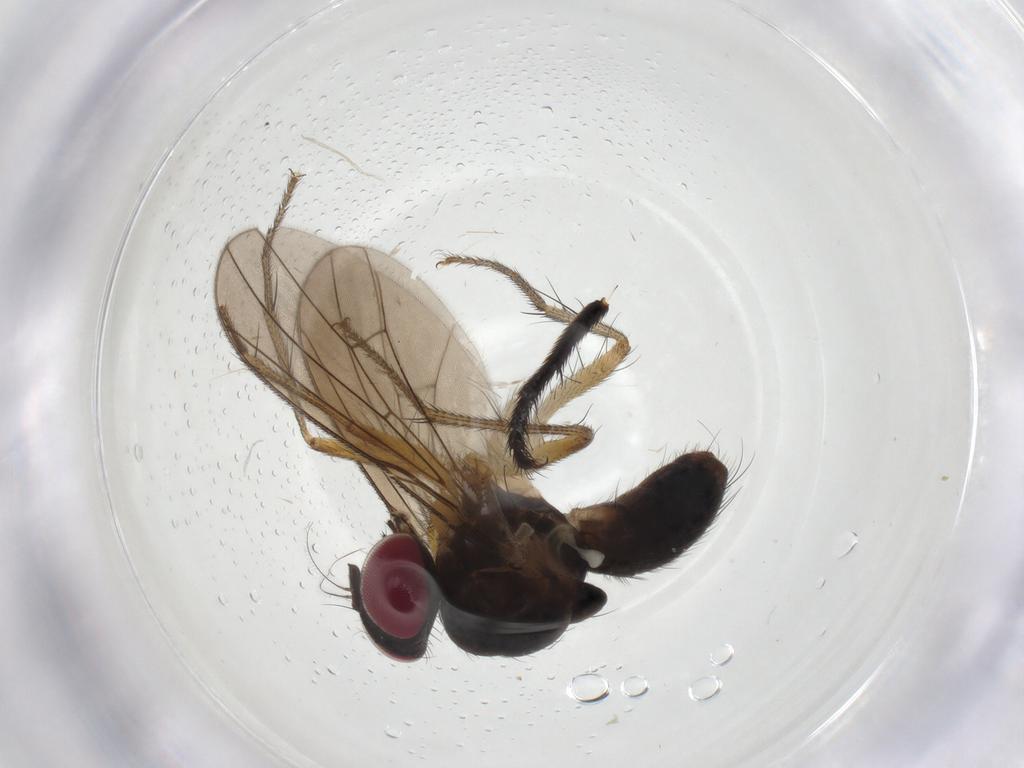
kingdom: Animalia
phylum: Arthropoda
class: Insecta
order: Diptera
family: Anthomyiidae
